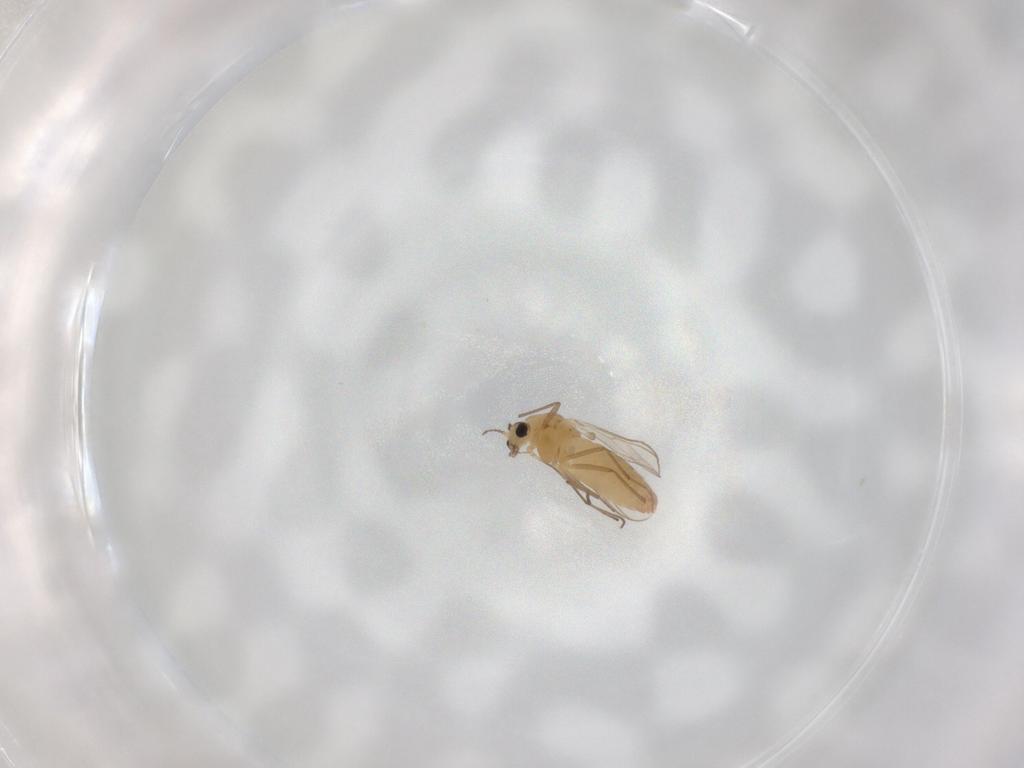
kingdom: Animalia
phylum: Arthropoda
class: Insecta
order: Diptera
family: Chironomidae
